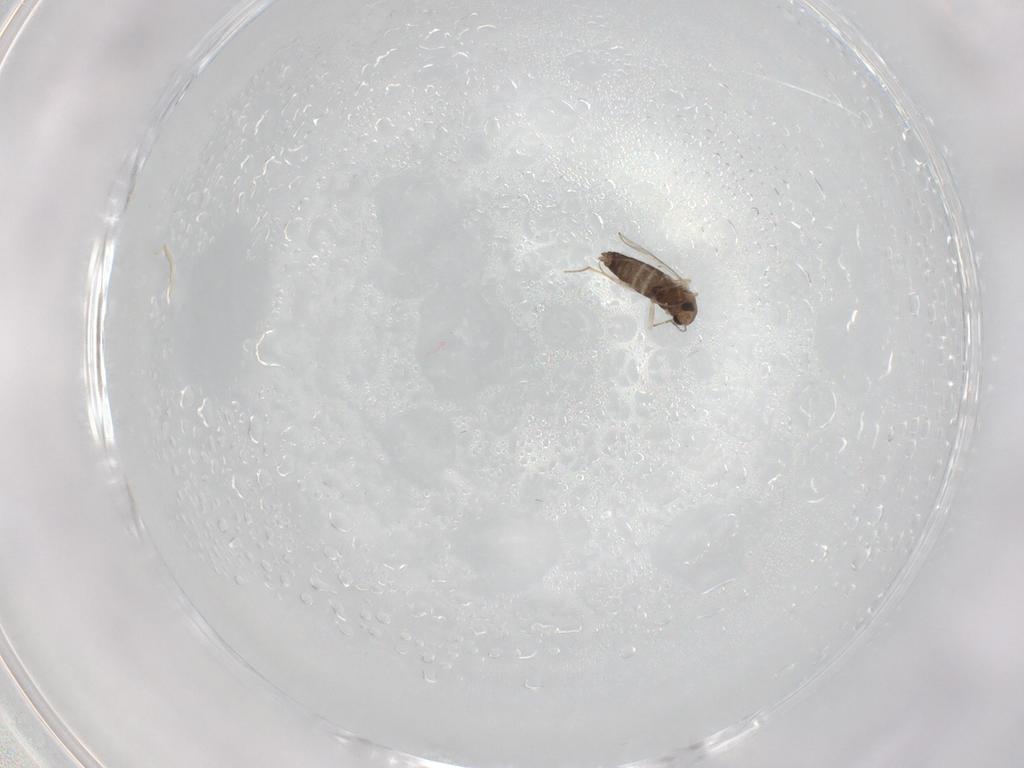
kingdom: Animalia
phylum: Arthropoda
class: Insecta
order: Diptera
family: Chironomidae
